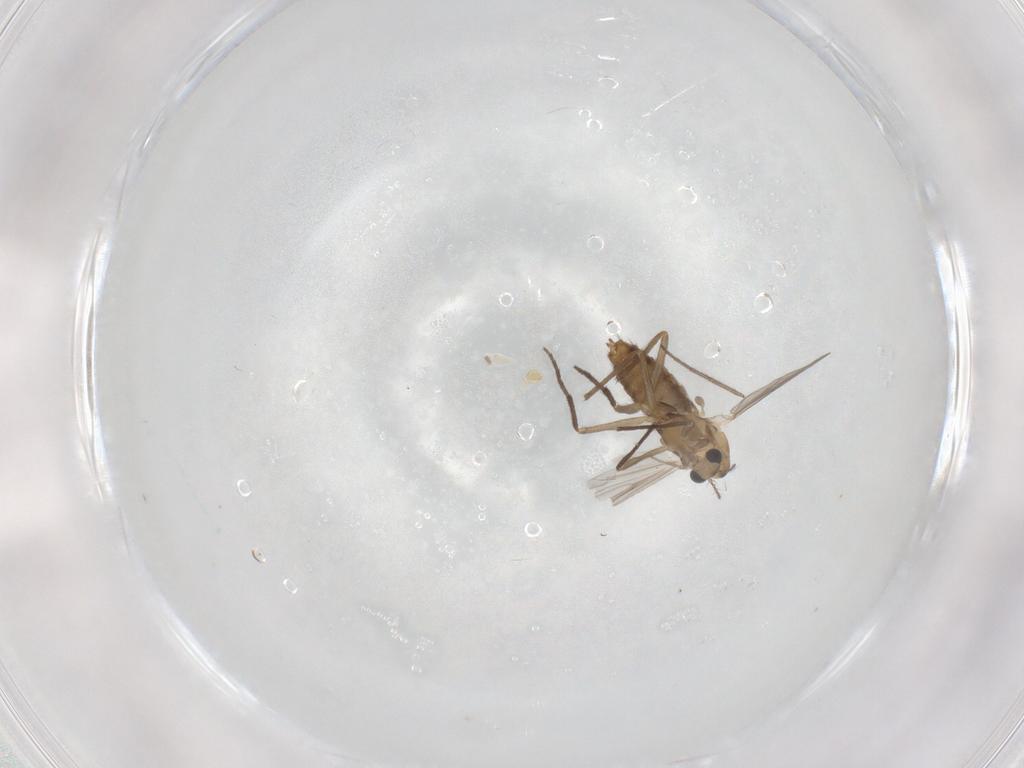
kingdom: Animalia
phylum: Arthropoda
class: Insecta
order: Diptera
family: Chironomidae
